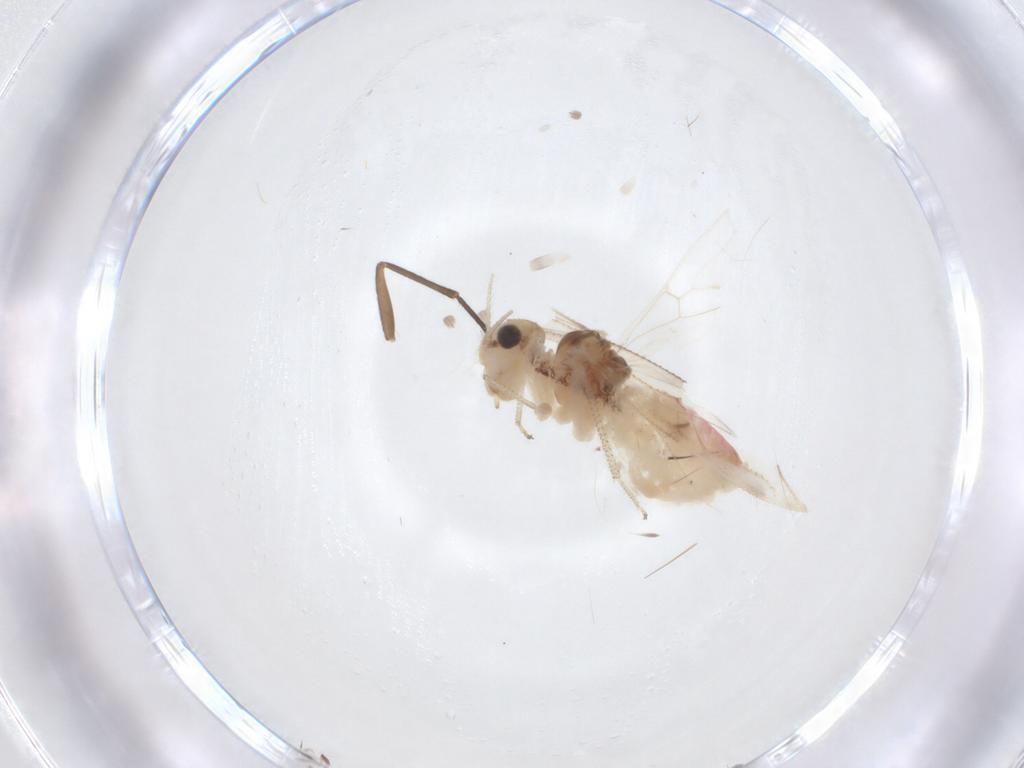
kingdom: Animalia
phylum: Arthropoda
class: Insecta
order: Psocodea
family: Pseudocaeciliidae
